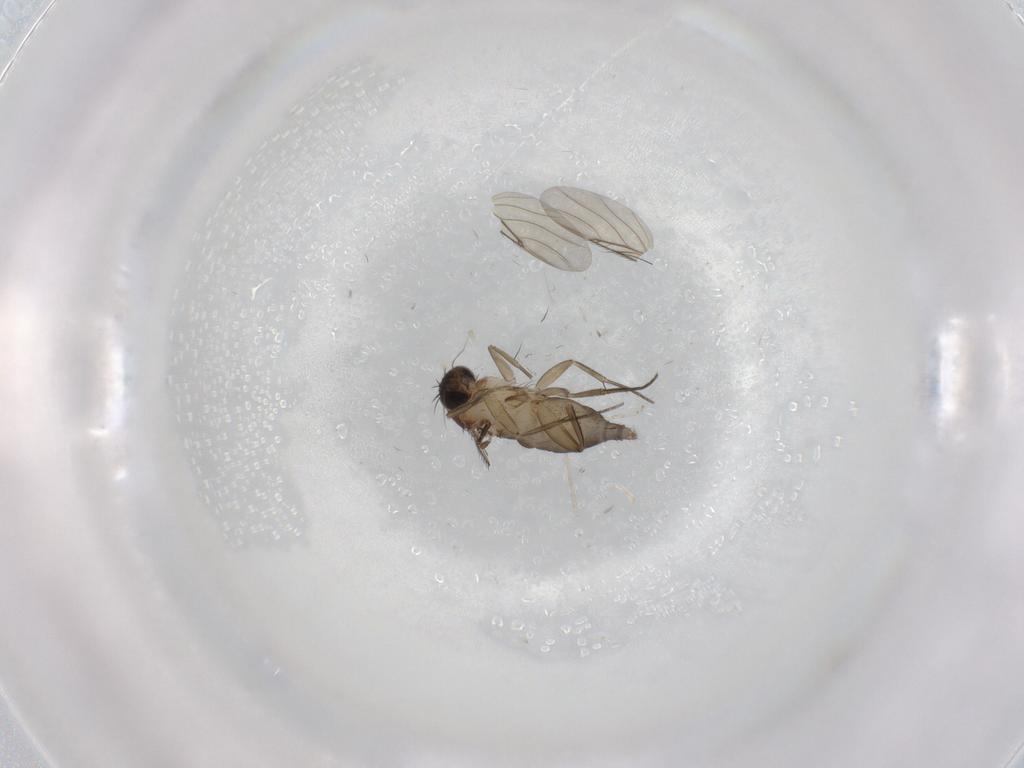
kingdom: Animalia
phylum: Arthropoda
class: Insecta
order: Diptera
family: Phoridae
